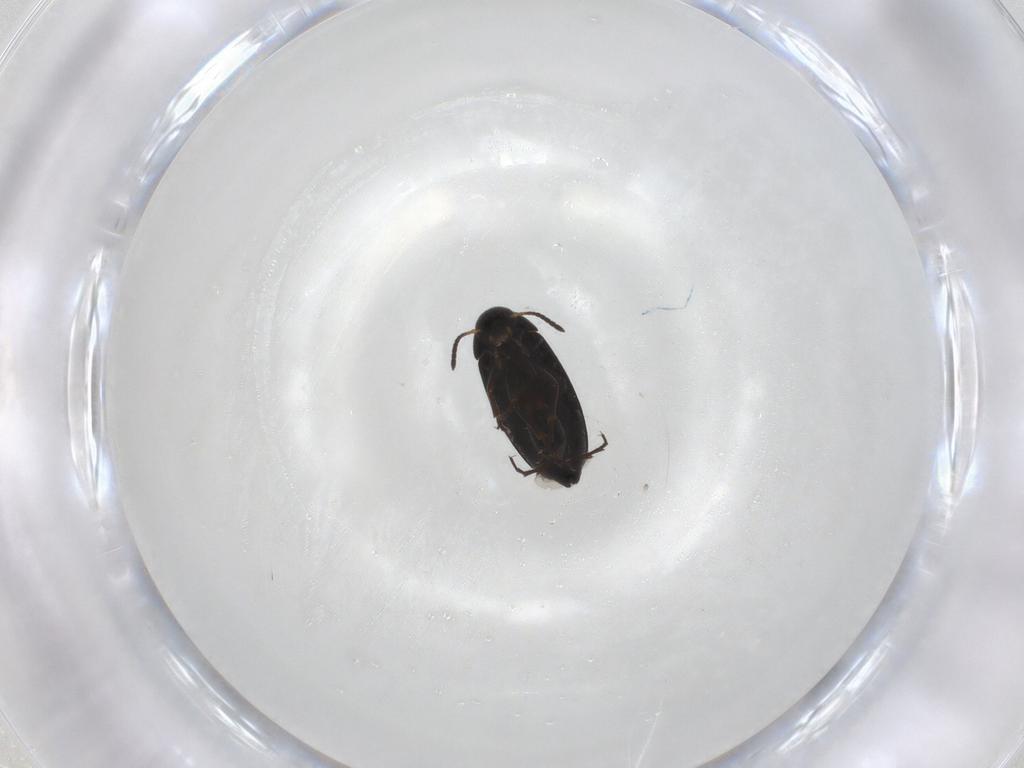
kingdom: Animalia
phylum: Arthropoda
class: Insecta
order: Coleoptera
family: Scraptiidae
